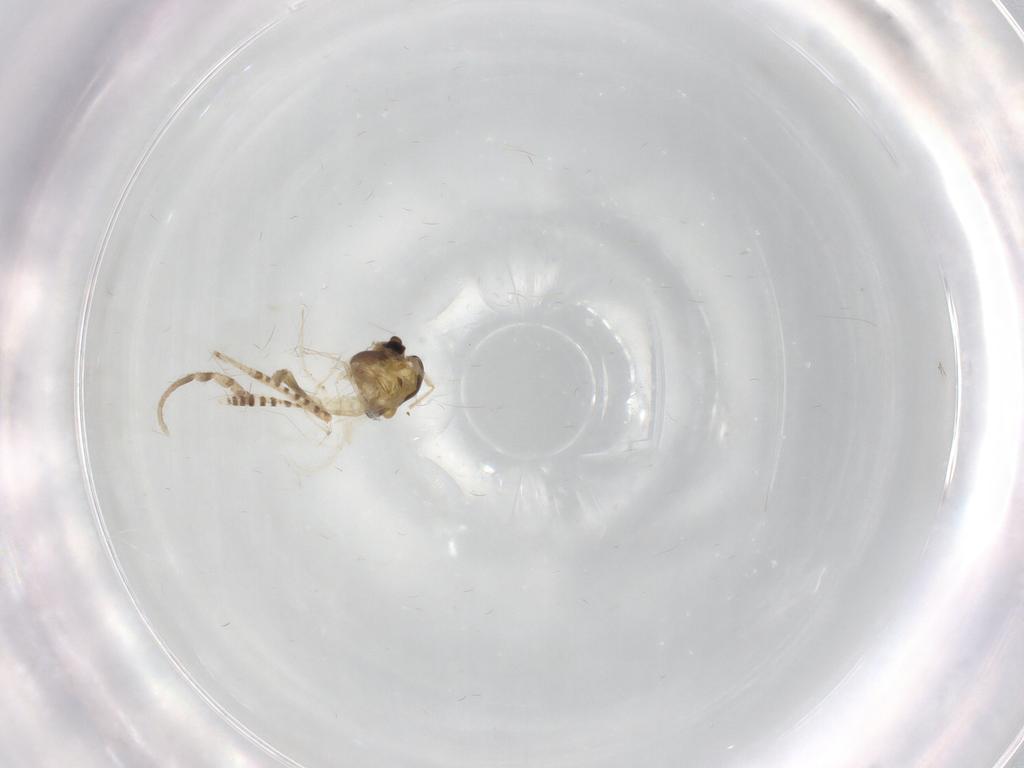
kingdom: Animalia
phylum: Arthropoda
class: Insecta
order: Diptera
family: Chironomidae
